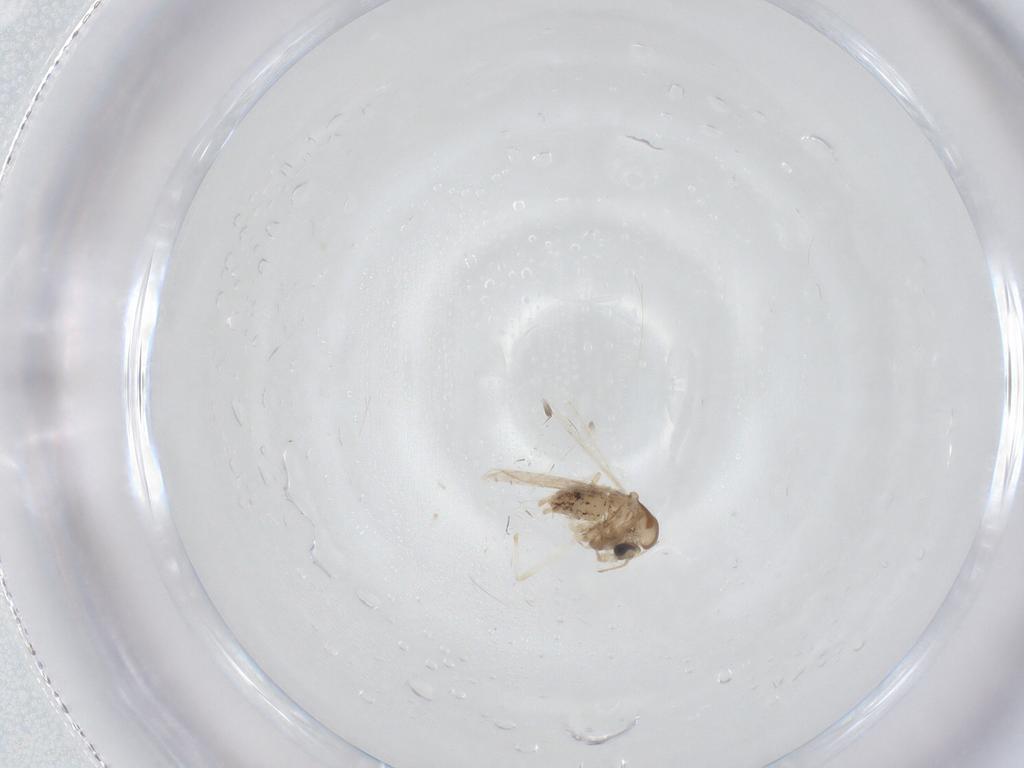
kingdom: Animalia
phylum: Arthropoda
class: Insecta
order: Diptera
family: Chironomidae
